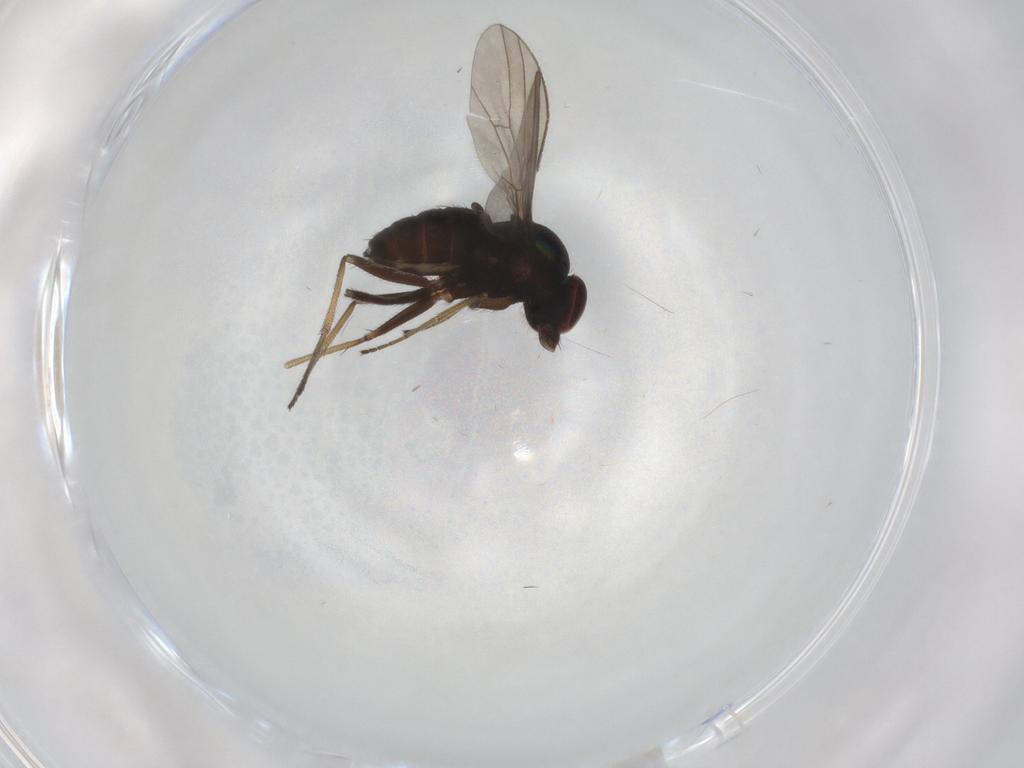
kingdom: Animalia
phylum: Arthropoda
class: Insecta
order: Diptera
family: Dolichopodidae
